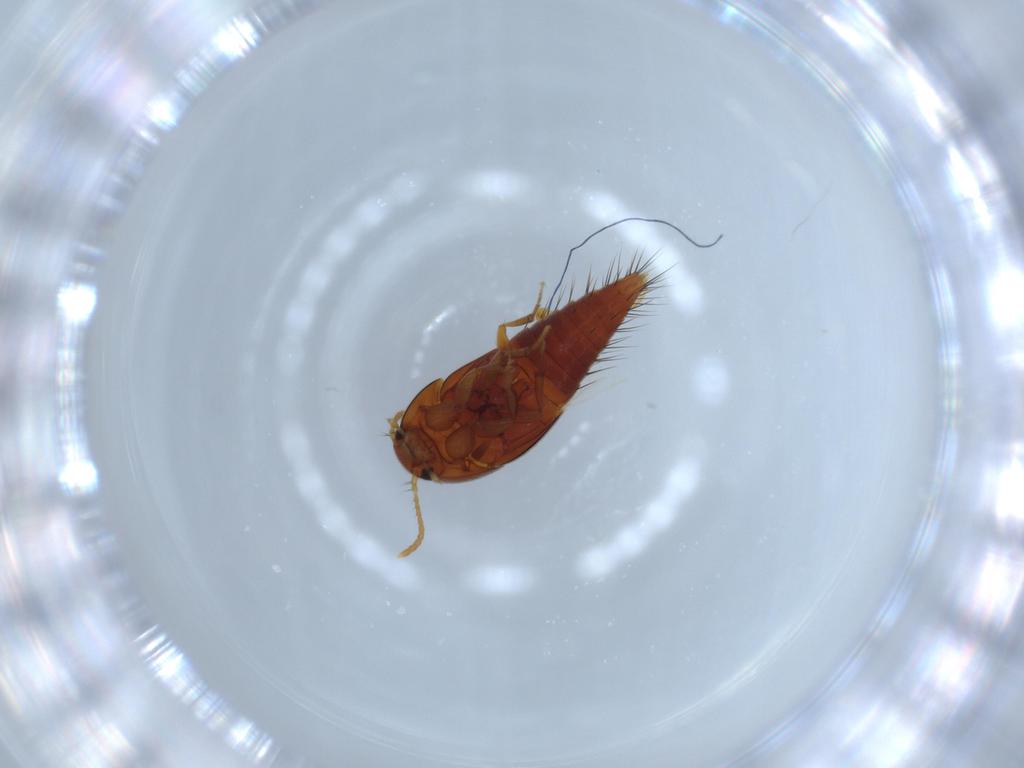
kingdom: Animalia
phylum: Arthropoda
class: Insecta
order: Coleoptera
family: Staphylinidae
